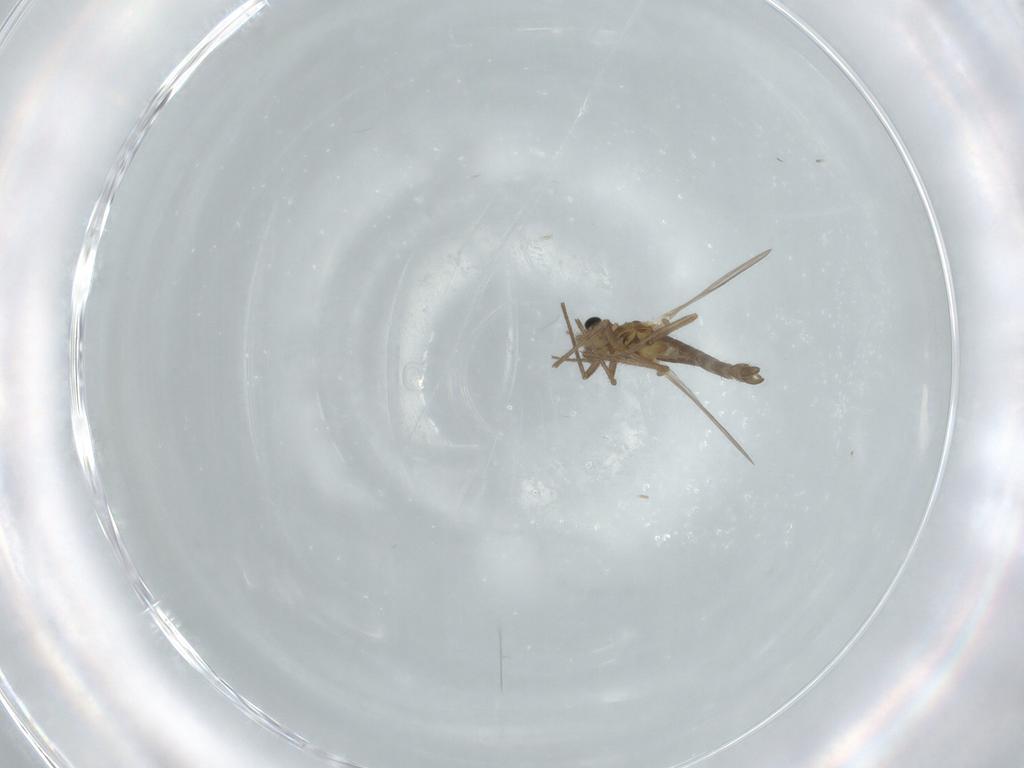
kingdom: Animalia
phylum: Arthropoda
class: Insecta
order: Diptera
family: Chironomidae
